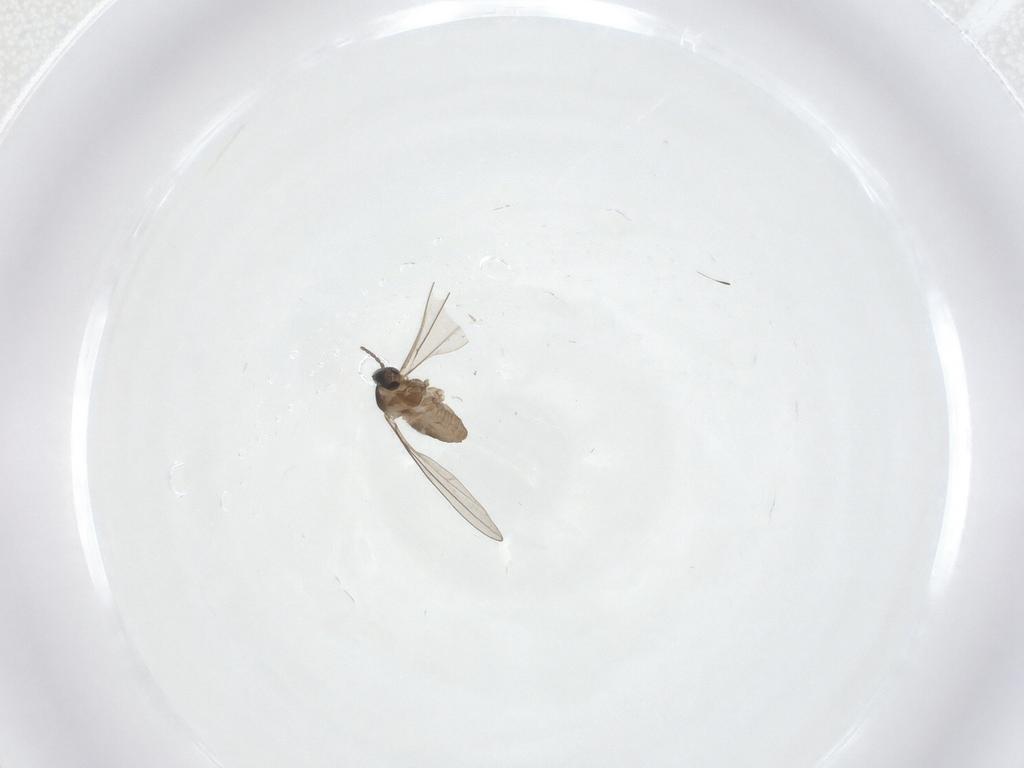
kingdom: Animalia
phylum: Arthropoda
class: Insecta
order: Diptera
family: Cecidomyiidae
